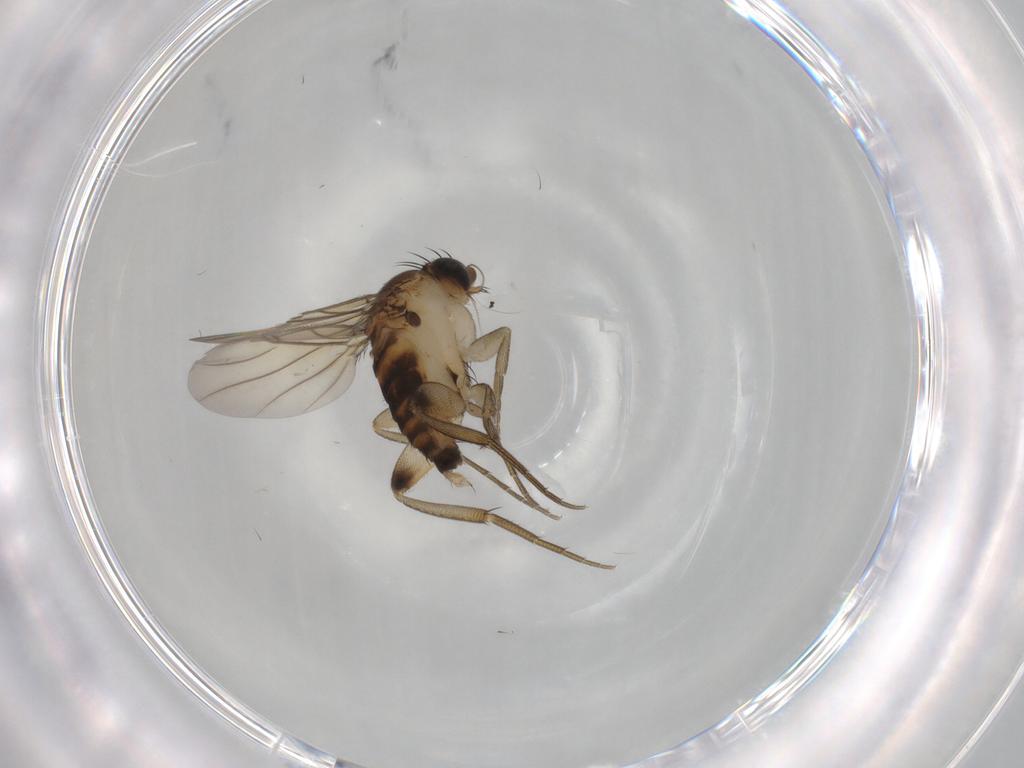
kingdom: Animalia
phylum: Arthropoda
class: Insecta
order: Diptera
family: Phoridae
